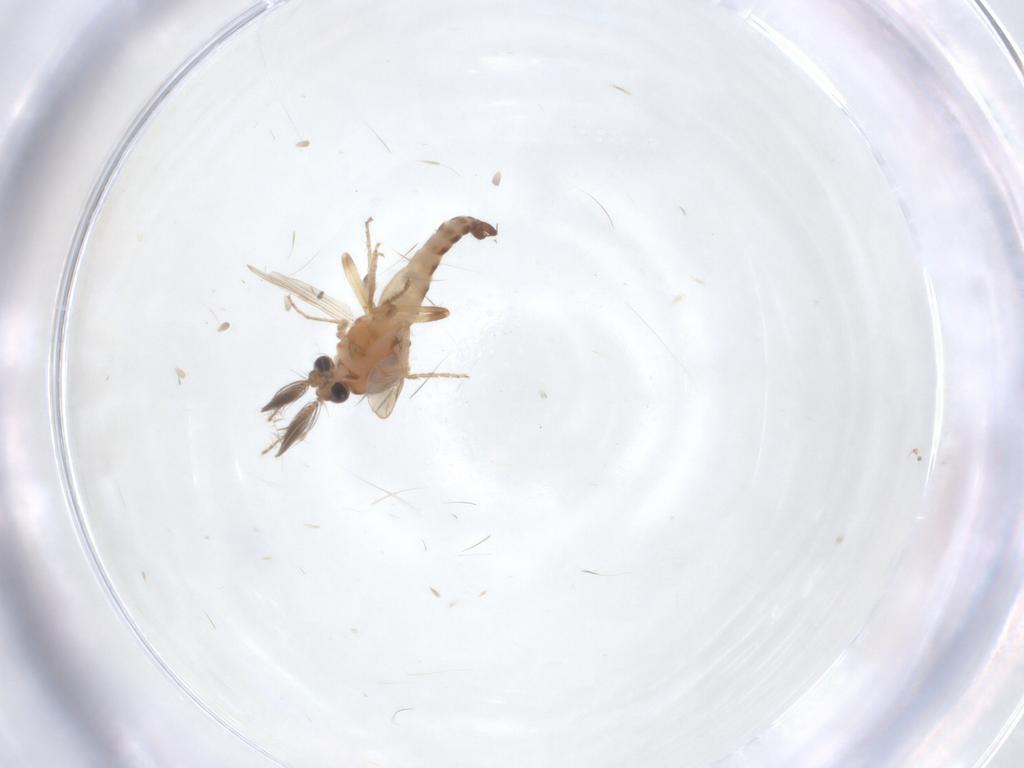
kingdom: Animalia
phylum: Arthropoda
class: Insecta
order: Diptera
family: Ceratopogonidae
